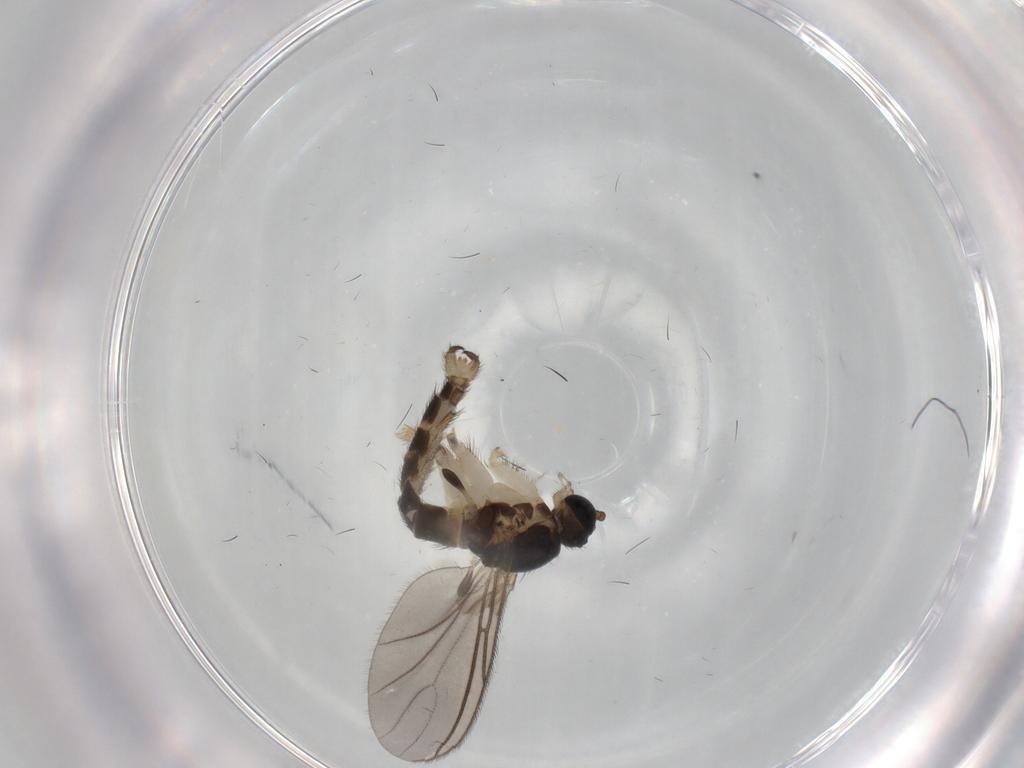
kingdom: Animalia
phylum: Arthropoda
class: Insecta
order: Diptera
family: Sciaridae
